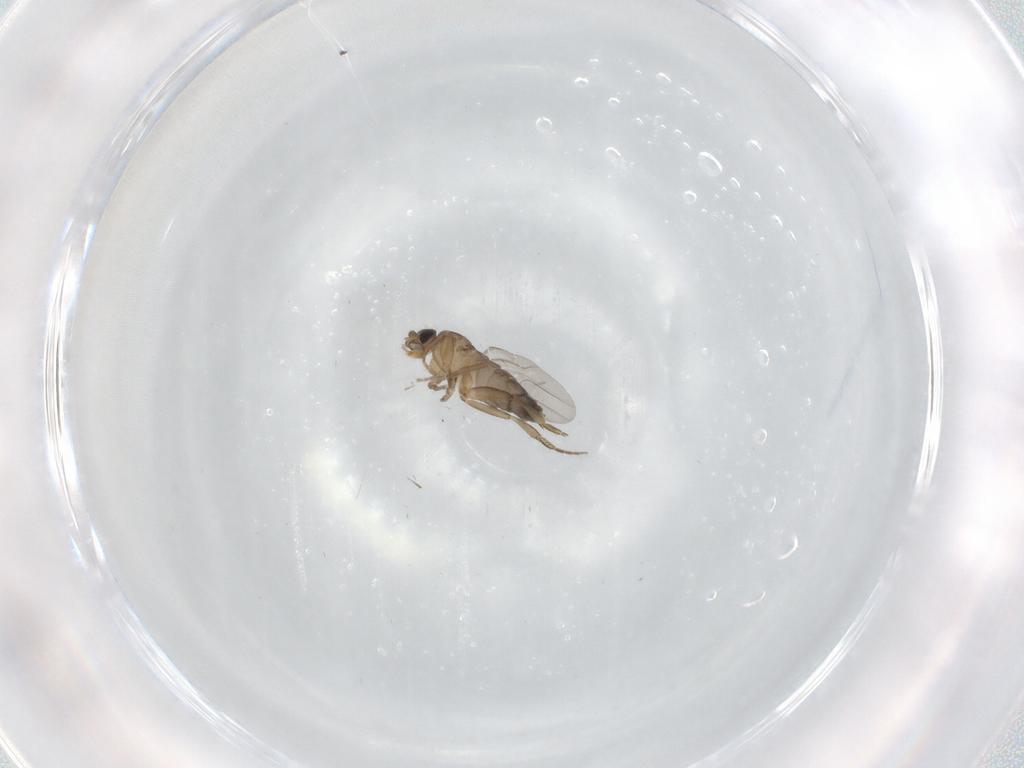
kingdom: Animalia
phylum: Arthropoda
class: Insecta
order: Diptera
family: Phoridae
